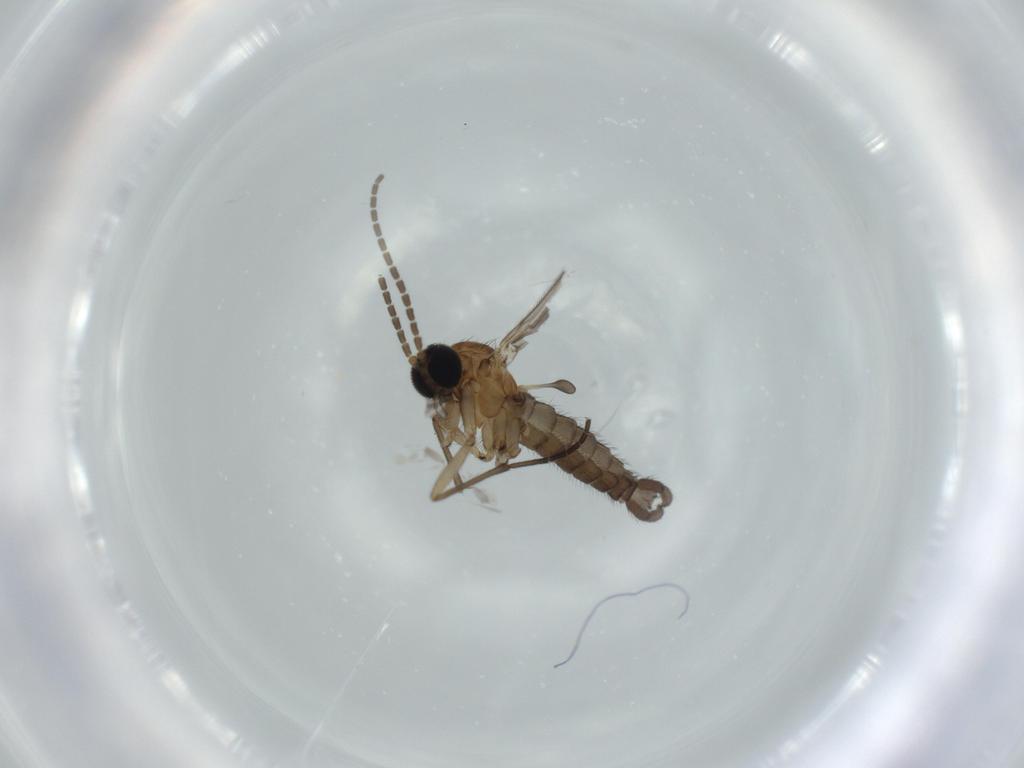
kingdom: Animalia
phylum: Arthropoda
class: Insecta
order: Diptera
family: Sciaridae
